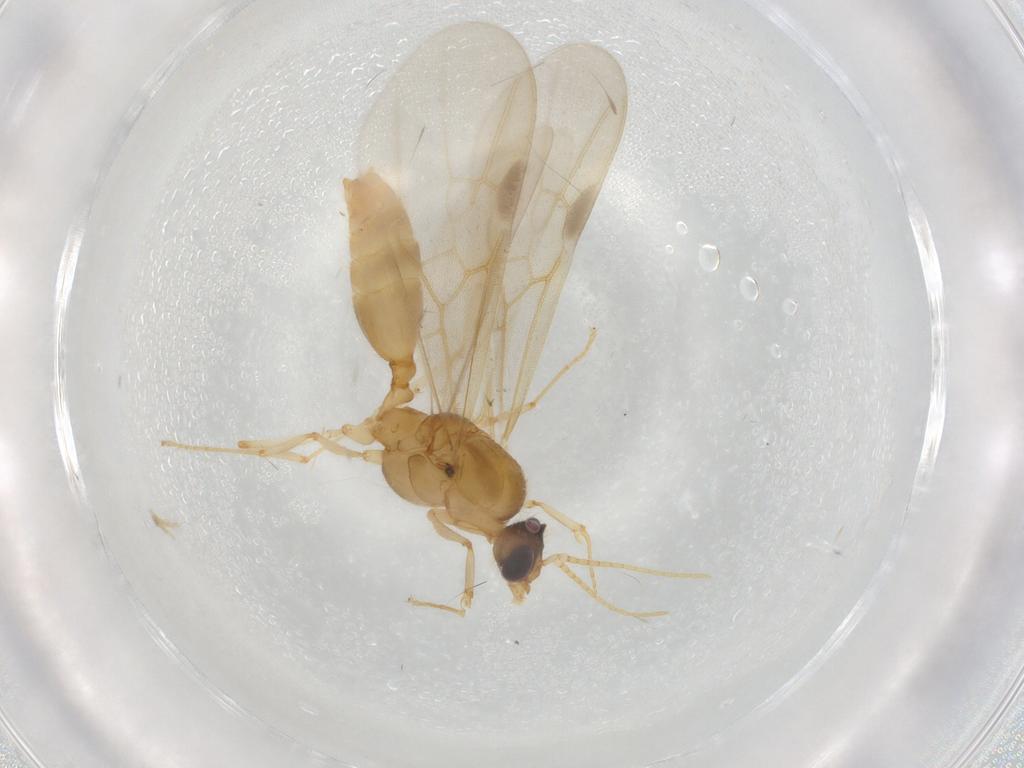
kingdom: Animalia
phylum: Arthropoda
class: Insecta
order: Hymenoptera
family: Formicidae
